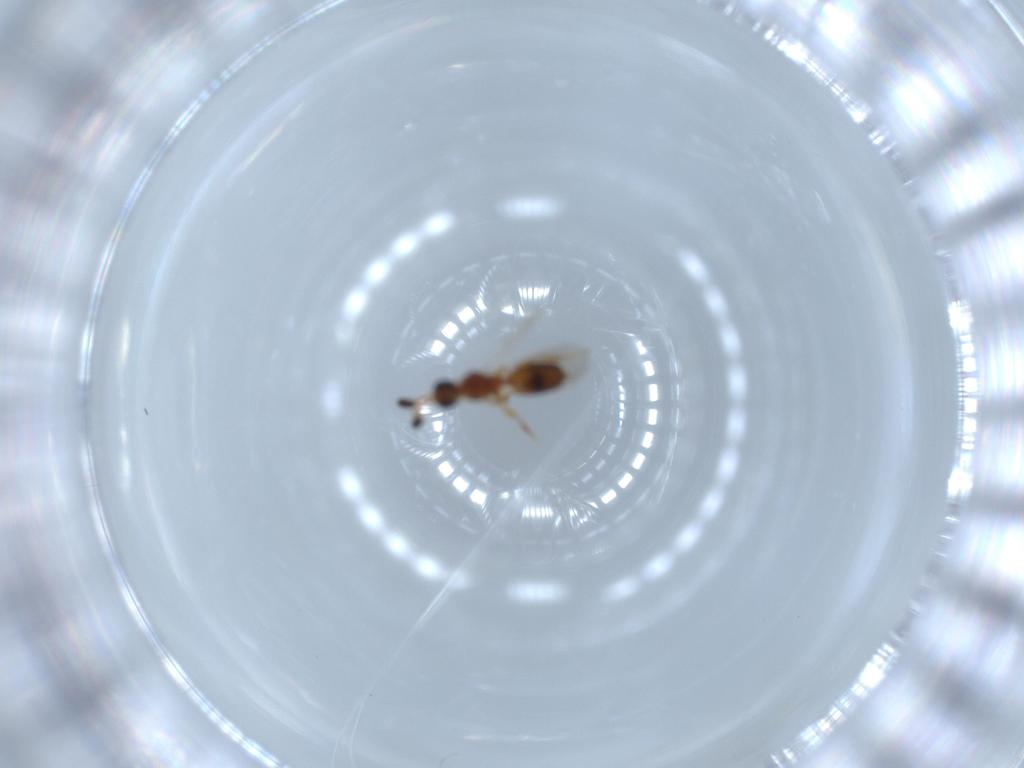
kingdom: Animalia
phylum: Arthropoda
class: Insecta
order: Hymenoptera
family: Diapriidae
